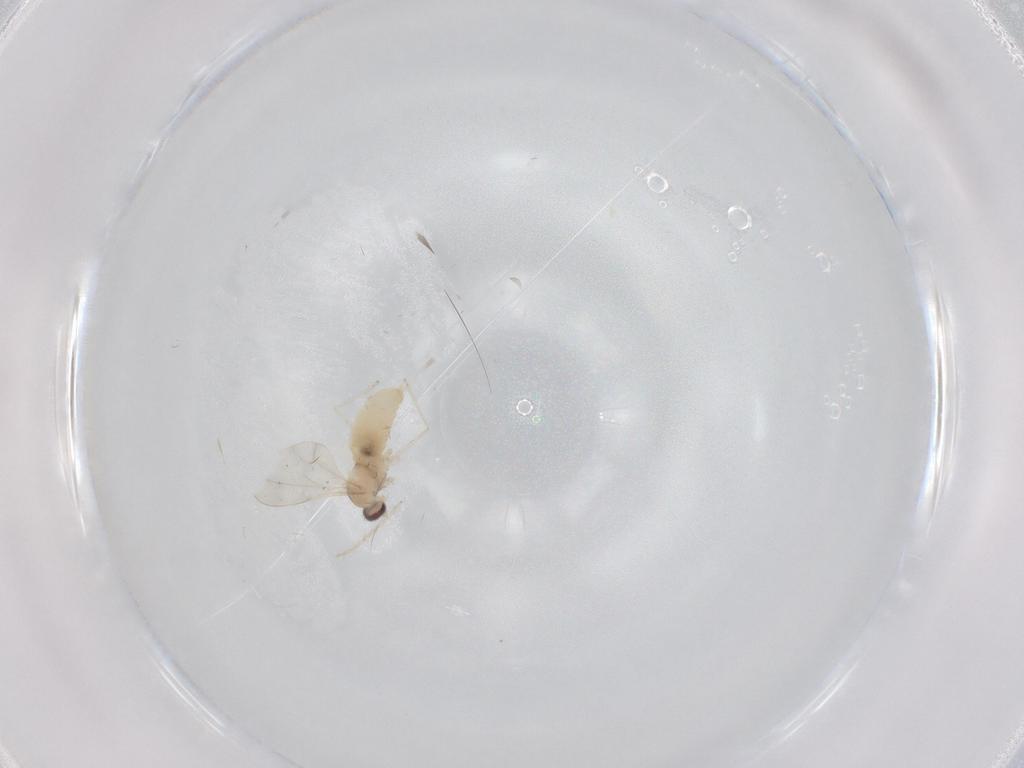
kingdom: Animalia
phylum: Arthropoda
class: Insecta
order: Diptera
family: Cecidomyiidae
